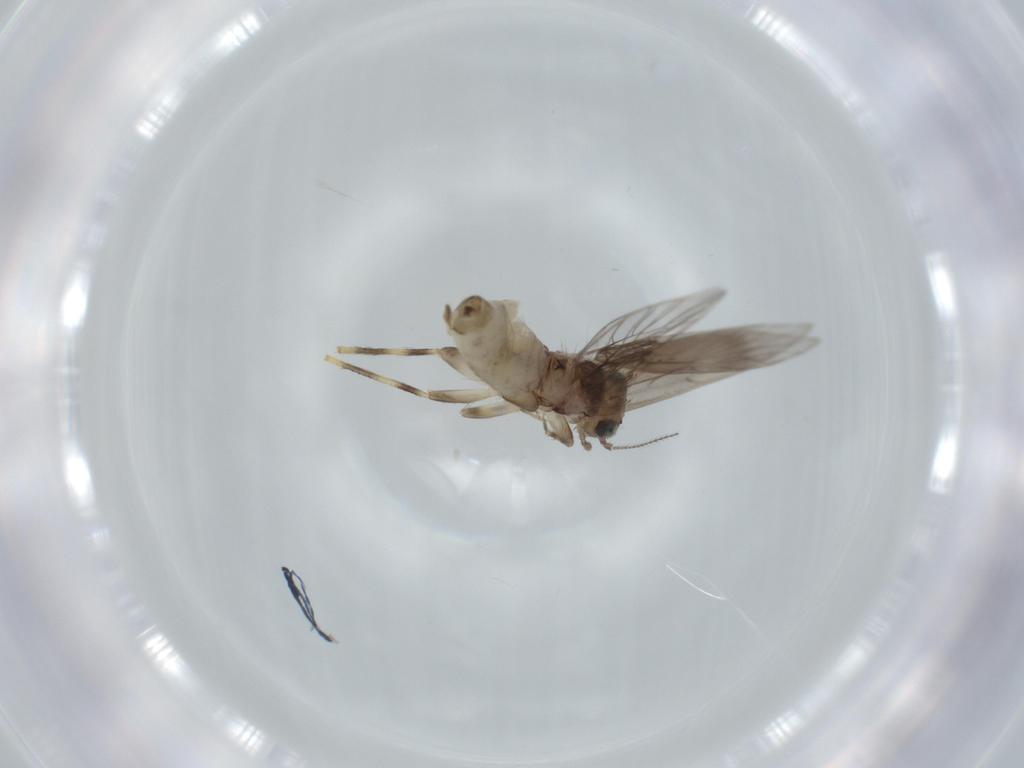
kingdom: Animalia
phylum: Arthropoda
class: Insecta
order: Psocodea
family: Lepidopsocidae
